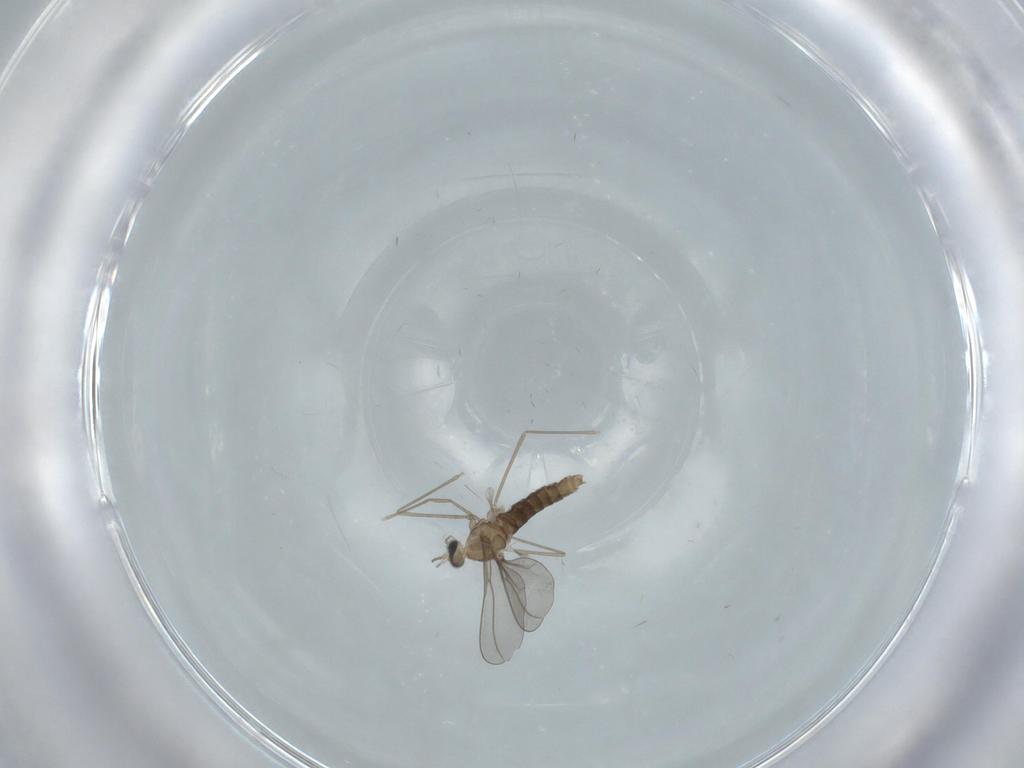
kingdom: Animalia
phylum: Arthropoda
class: Insecta
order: Diptera
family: Cecidomyiidae
